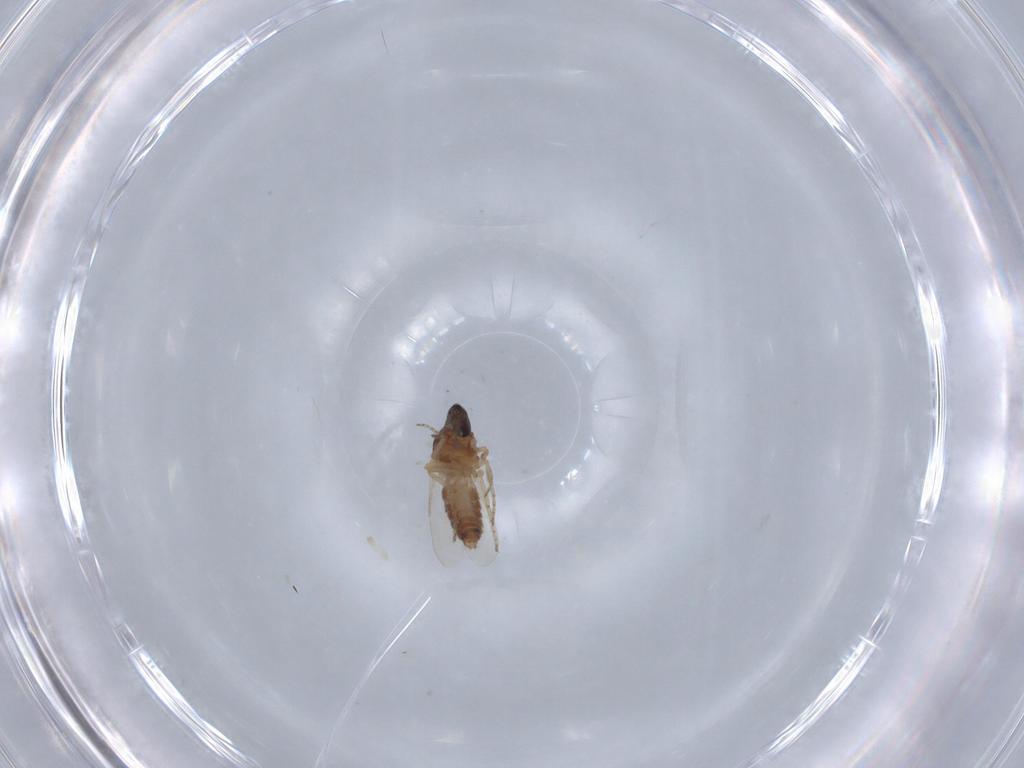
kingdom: Animalia
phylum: Arthropoda
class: Insecta
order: Diptera
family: Ceratopogonidae
